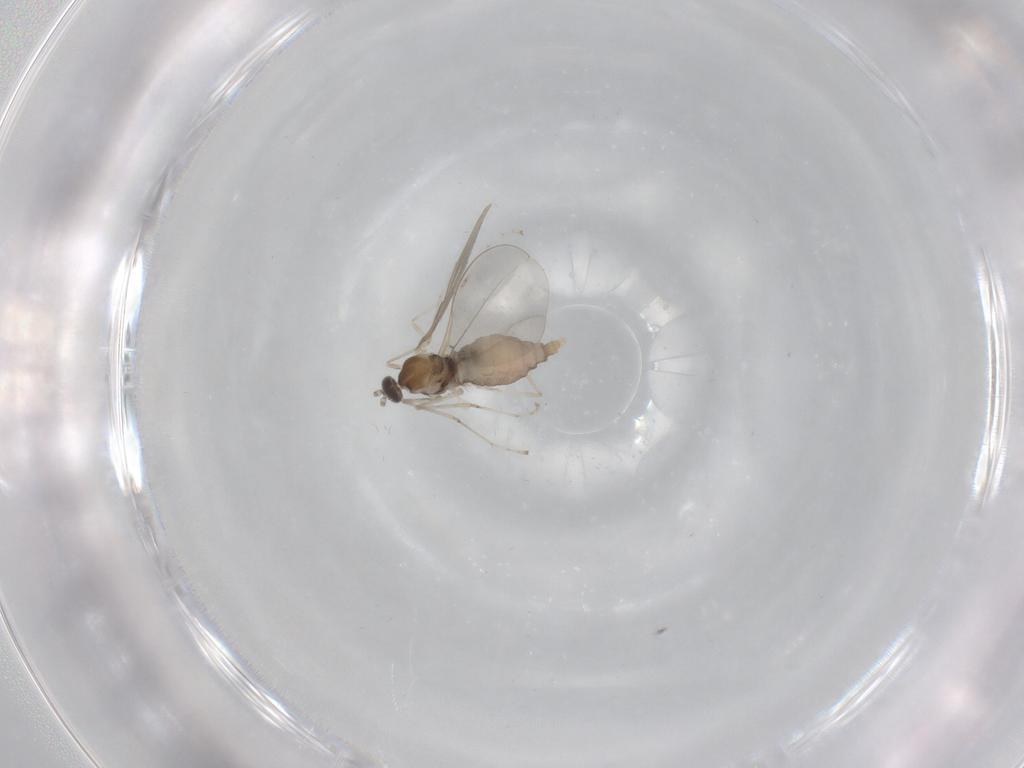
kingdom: Animalia
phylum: Arthropoda
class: Insecta
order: Diptera
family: Cecidomyiidae
